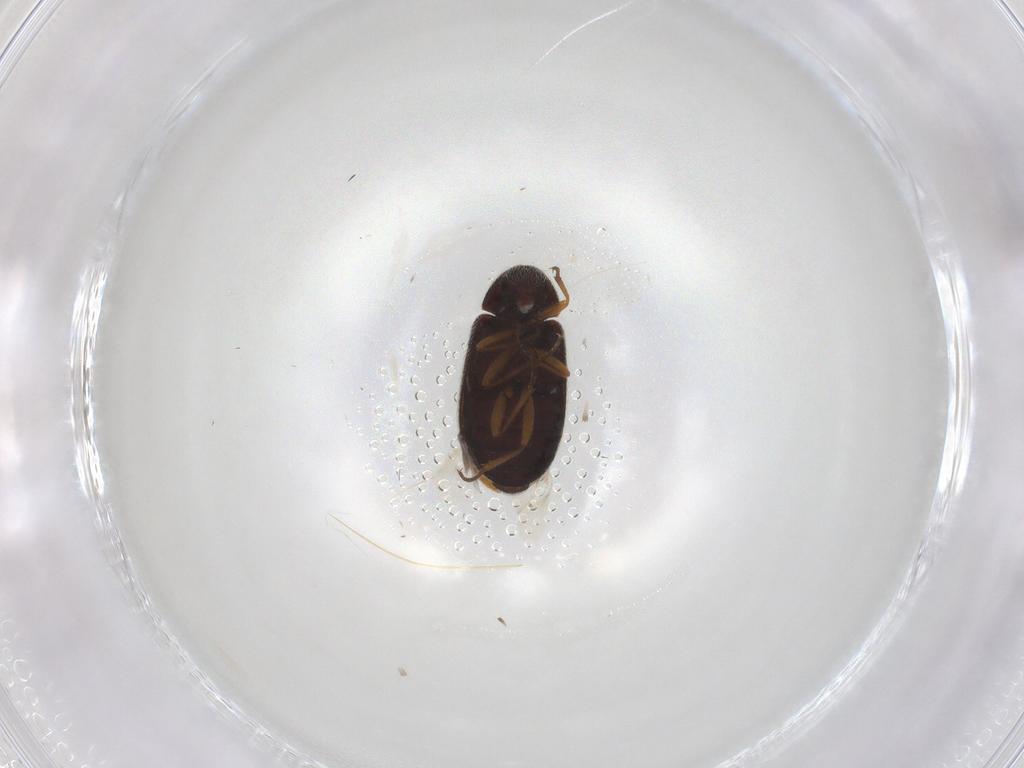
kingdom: Animalia
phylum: Arthropoda
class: Insecta
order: Coleoptera
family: Rhadalidae
